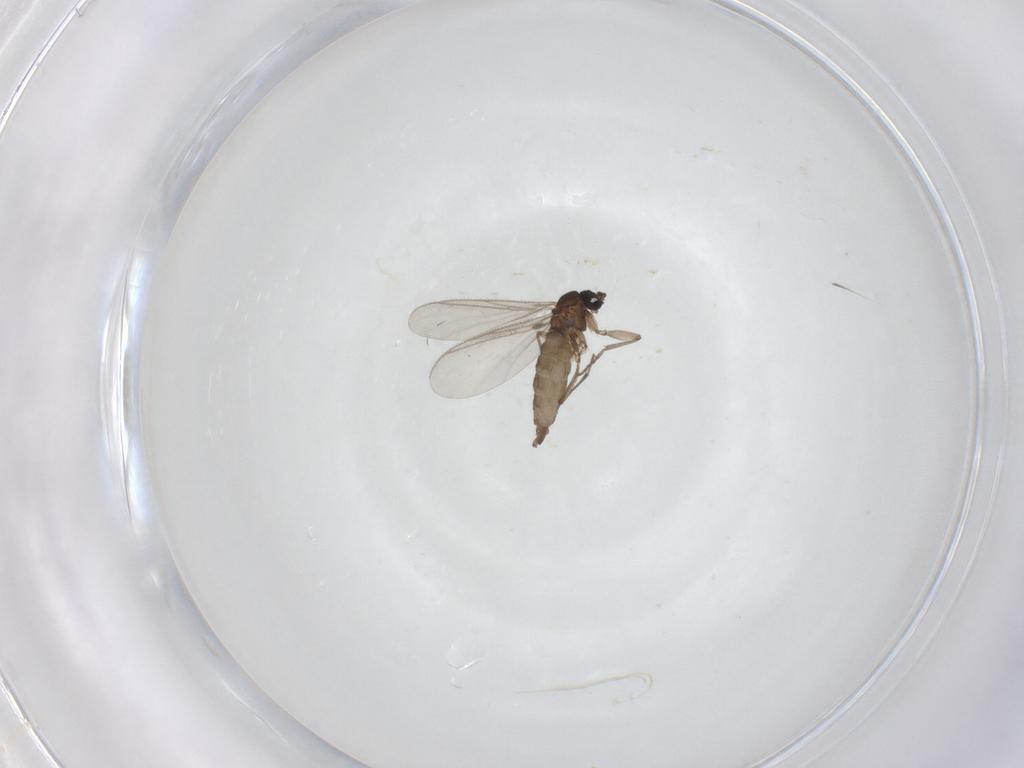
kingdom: Animalia
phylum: Arthropoda
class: Insecta
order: Diptera
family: Sciaridae
